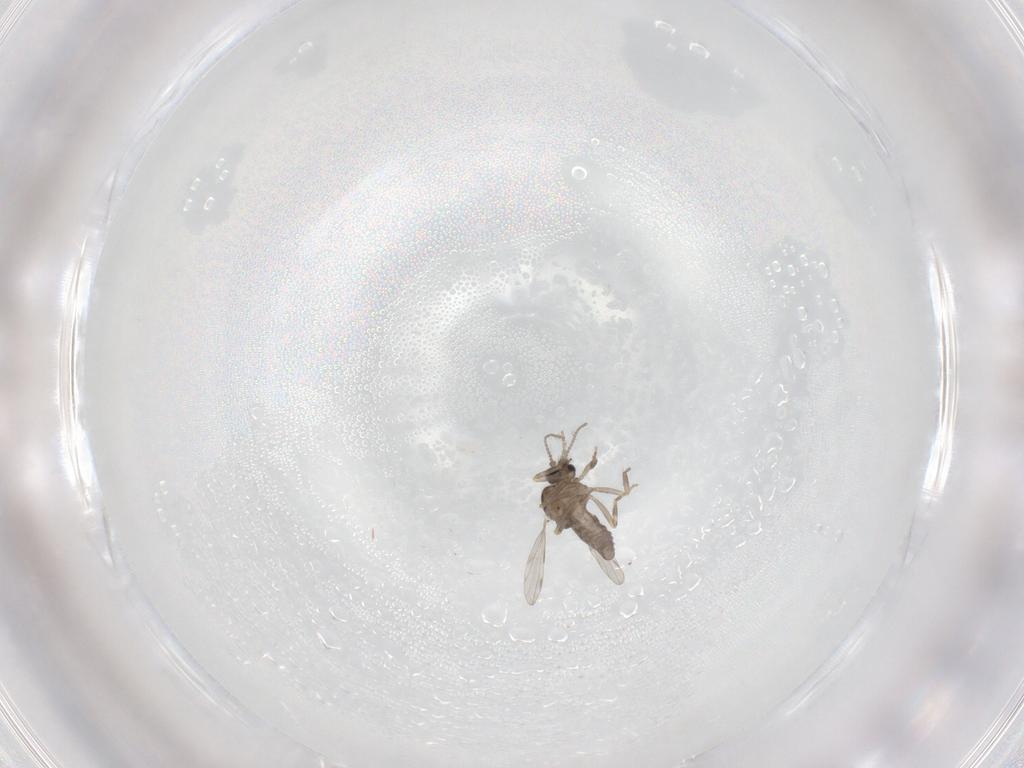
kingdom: Animalia
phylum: Arthropoda
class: Insecta
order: Diptera
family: Ceratopogonidae
